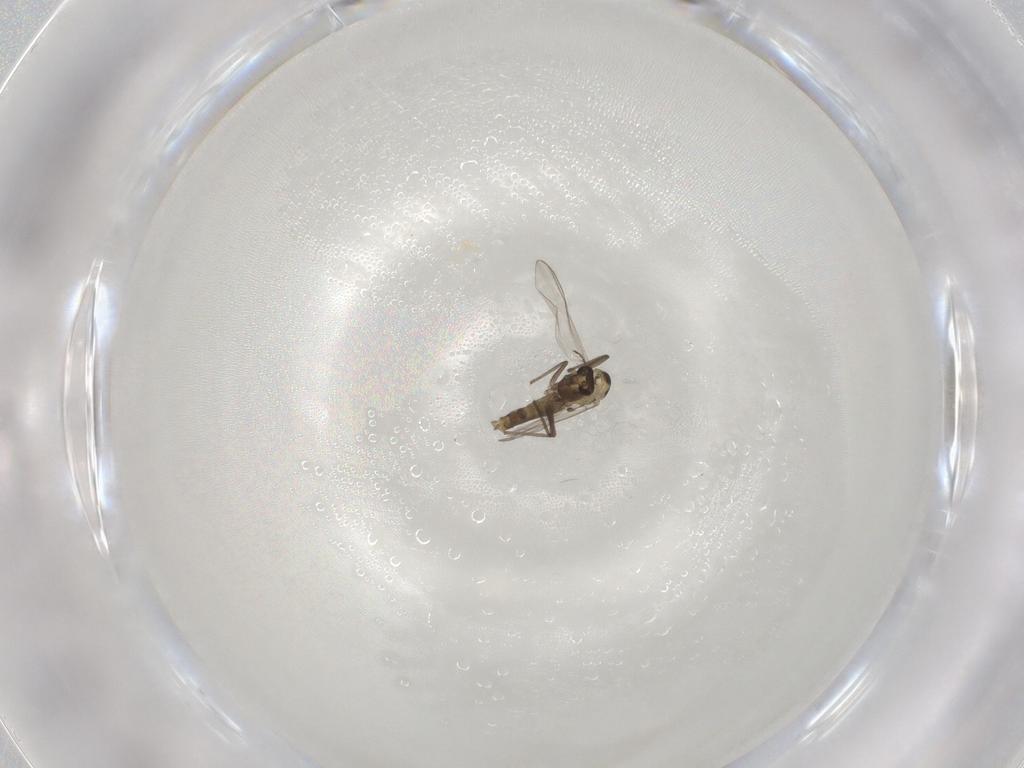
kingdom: Animalia
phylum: Arthropoda
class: Insecta
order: Diptera
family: Chironomidae
